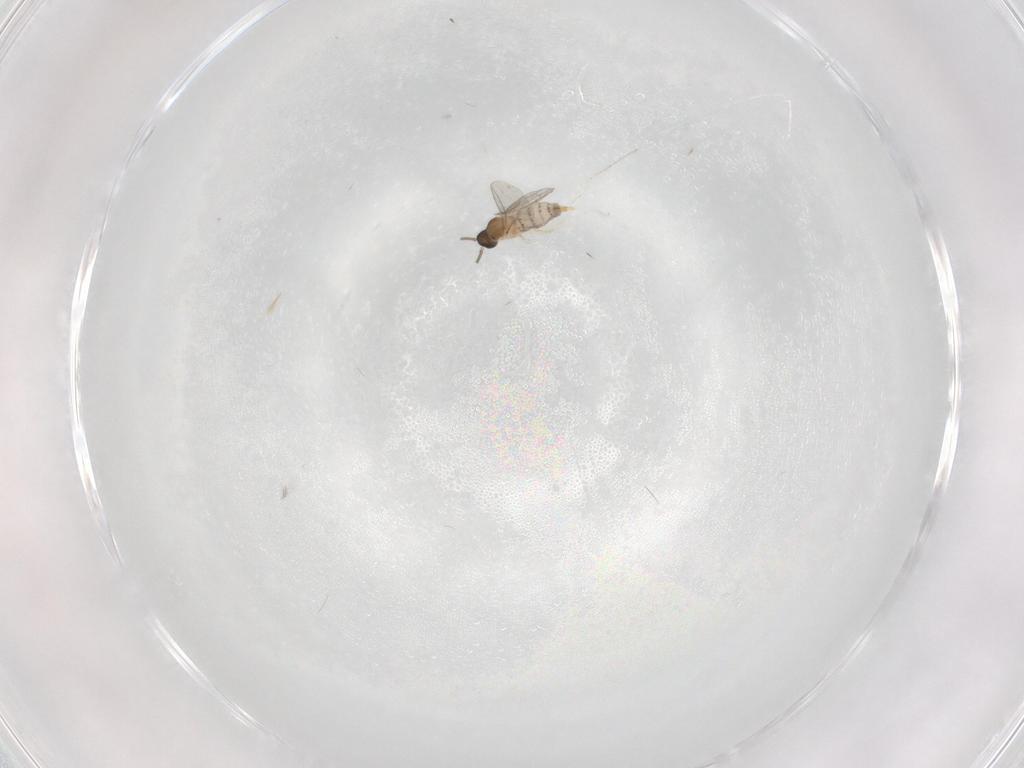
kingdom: Animalia
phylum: Arthropoda
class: Insecta
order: Diptera
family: Cecidomyiidae
